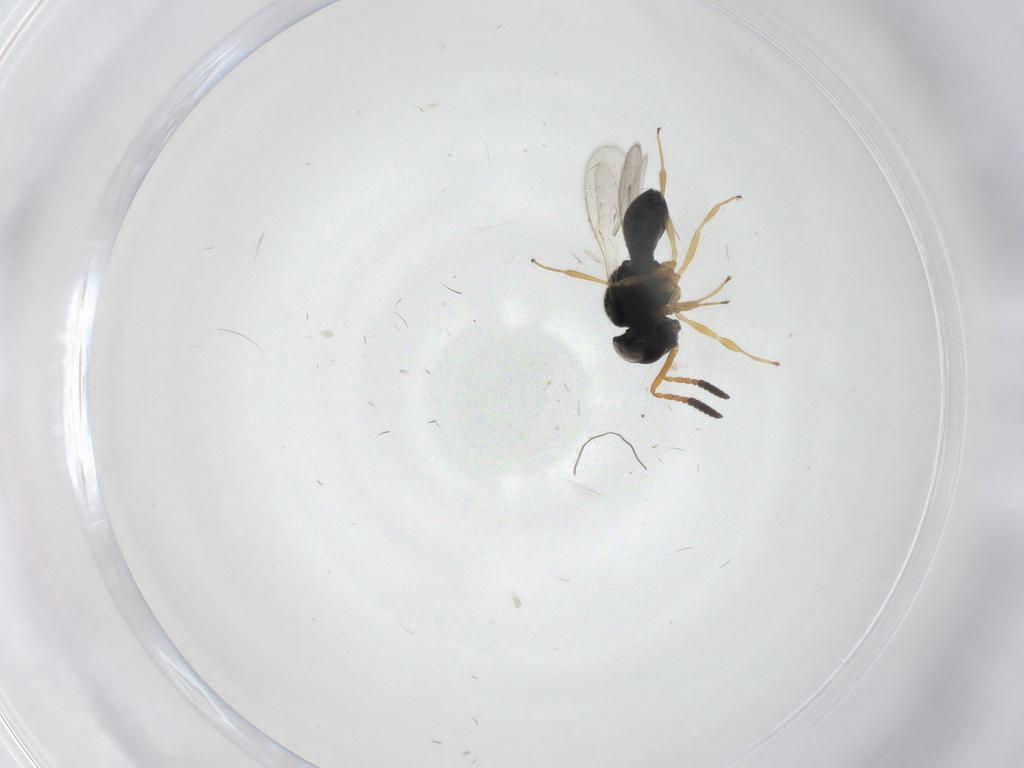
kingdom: Animalia
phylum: Arthropoda
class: Insecta
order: Hymenoptera
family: Scelionidae
